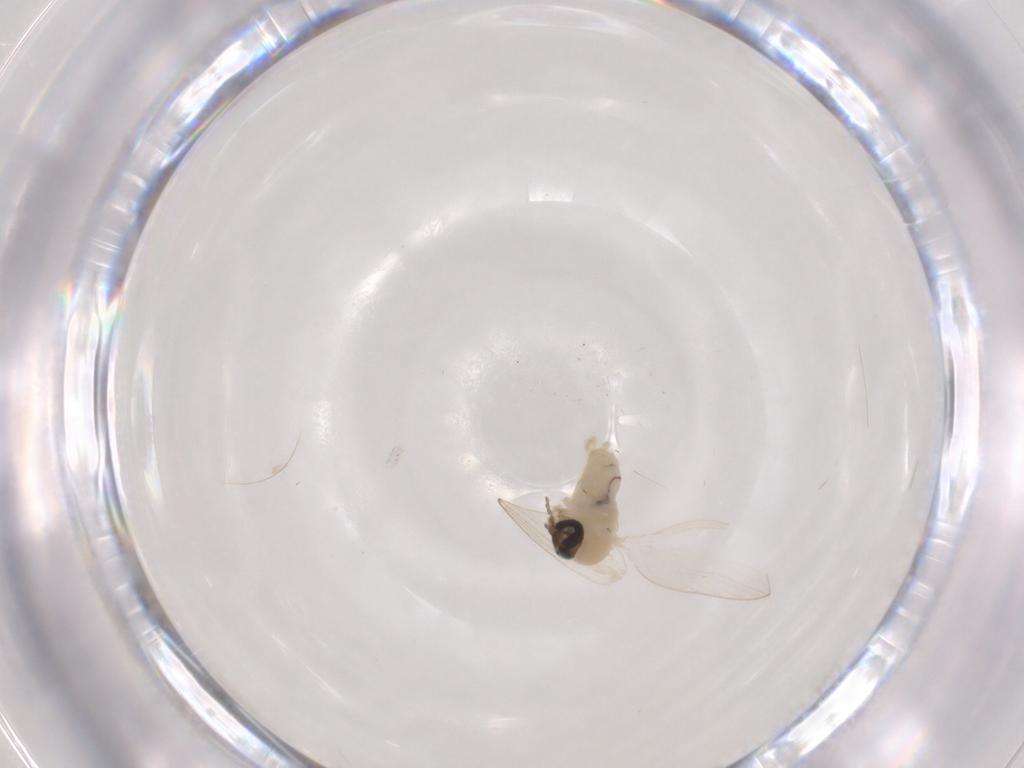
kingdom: Animalia
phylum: Arthropoda
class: Insecta
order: Diptera
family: Psychodidae
